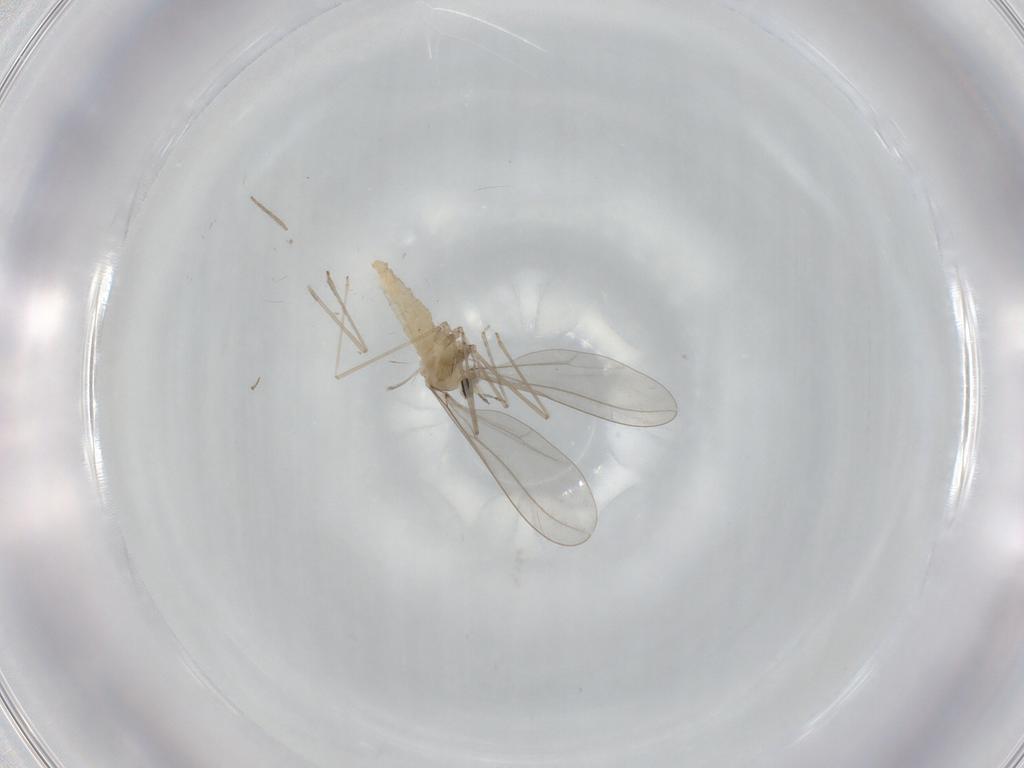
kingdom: Animalia
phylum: Arthropoda
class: Insecta
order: Diptera
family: Cecidomyiidae
